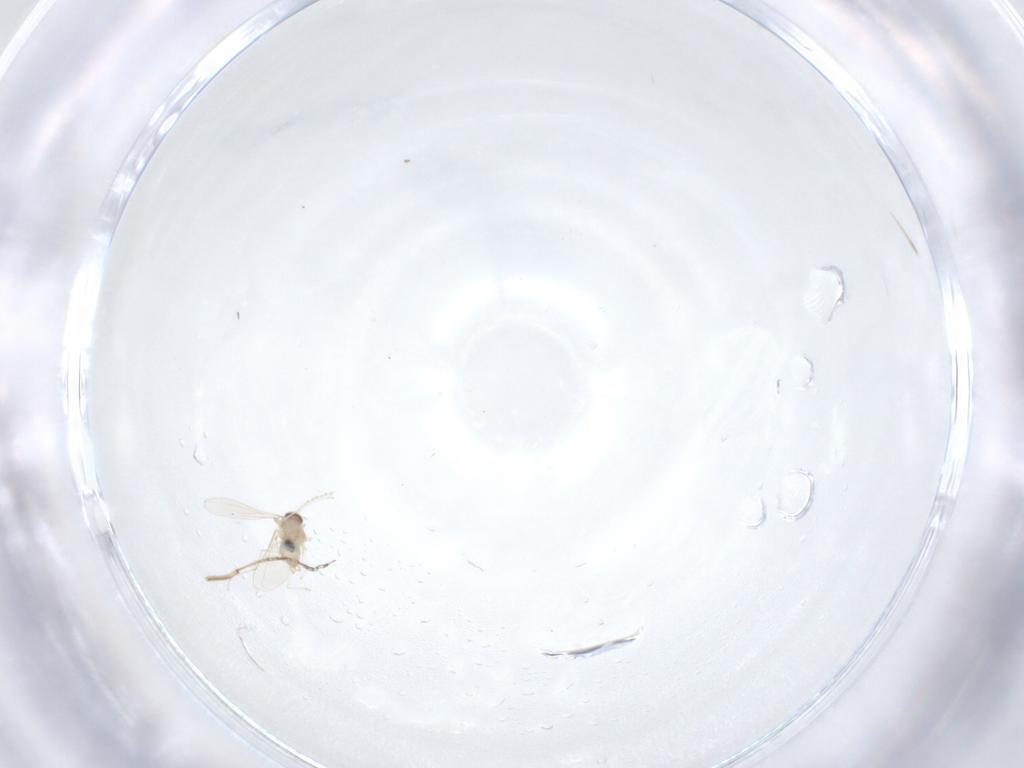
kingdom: Animalia
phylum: Arthropoda
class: Insecta
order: Diptera
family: Cecidomyiidae
